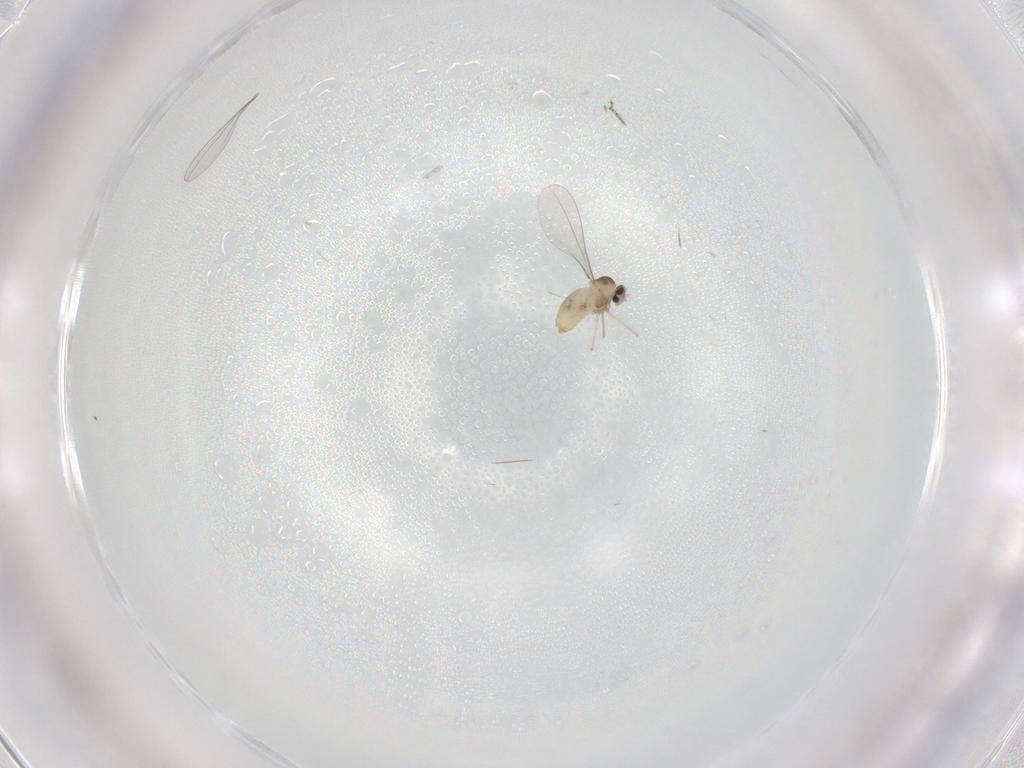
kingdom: Animalia
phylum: Arthropoda
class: Insecta
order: Diptera
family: Cecidomyiidae
